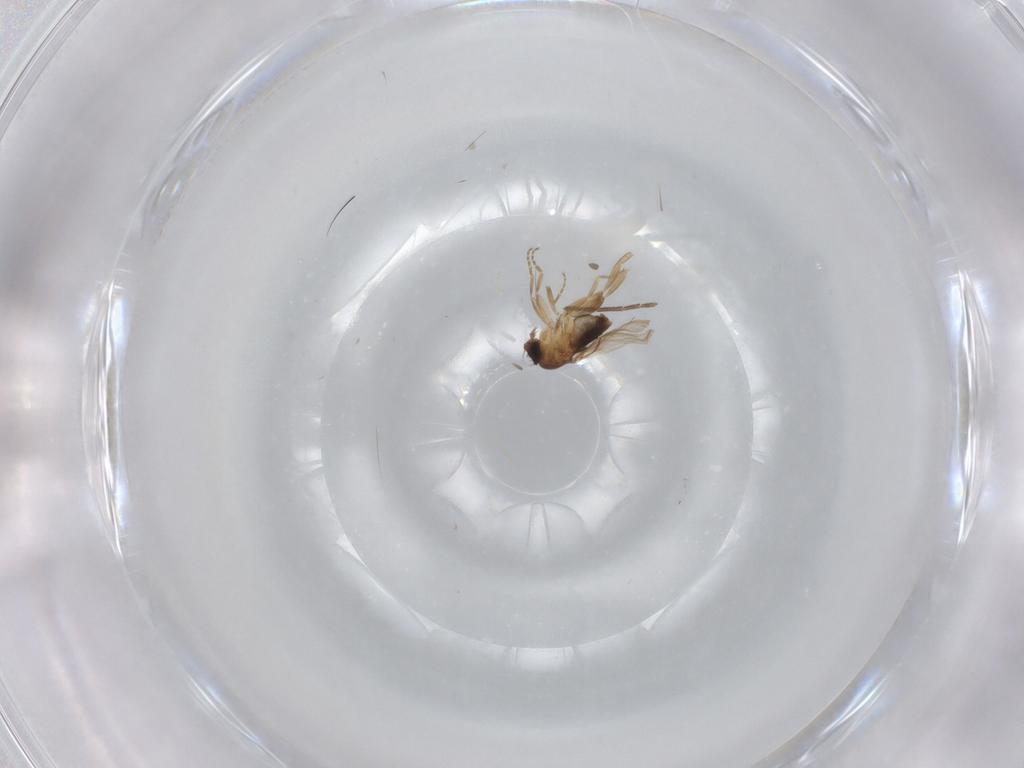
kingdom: Animalia
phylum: Arthropoda
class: Insecta
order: Diptera
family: Phoridae
